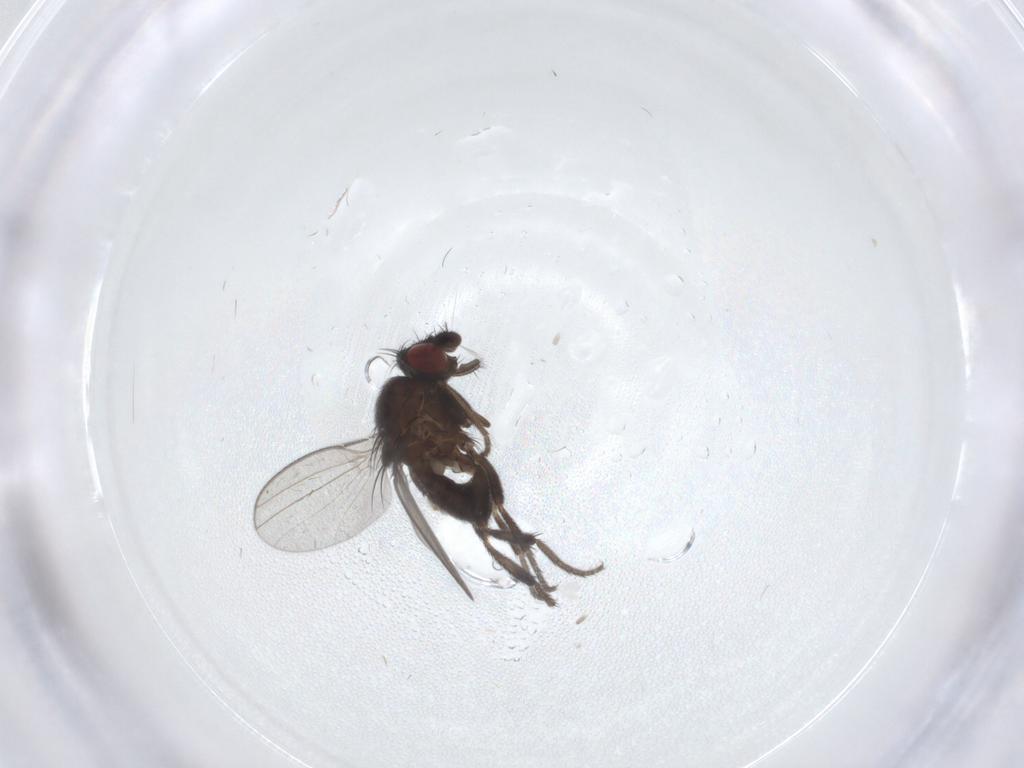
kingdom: Animalia
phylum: Arthropoda
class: Insecta
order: Diptera
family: Milichiidae
